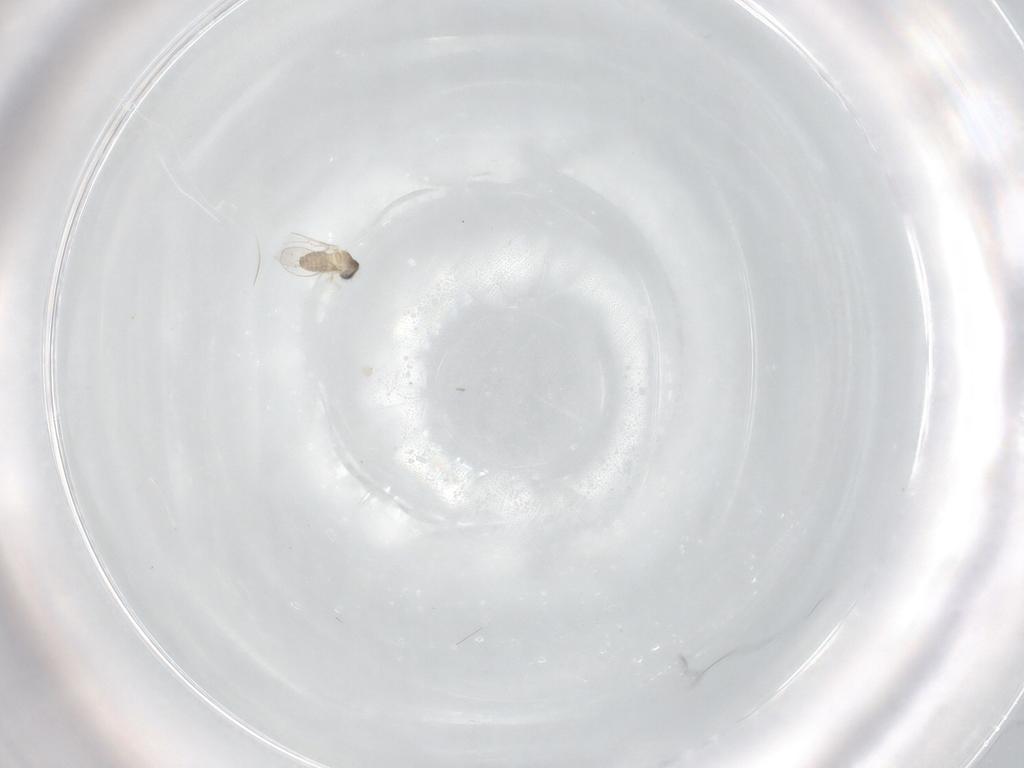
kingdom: Animalia
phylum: Arthropoda
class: Insecta
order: Diptera
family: Cecidomyiidae
